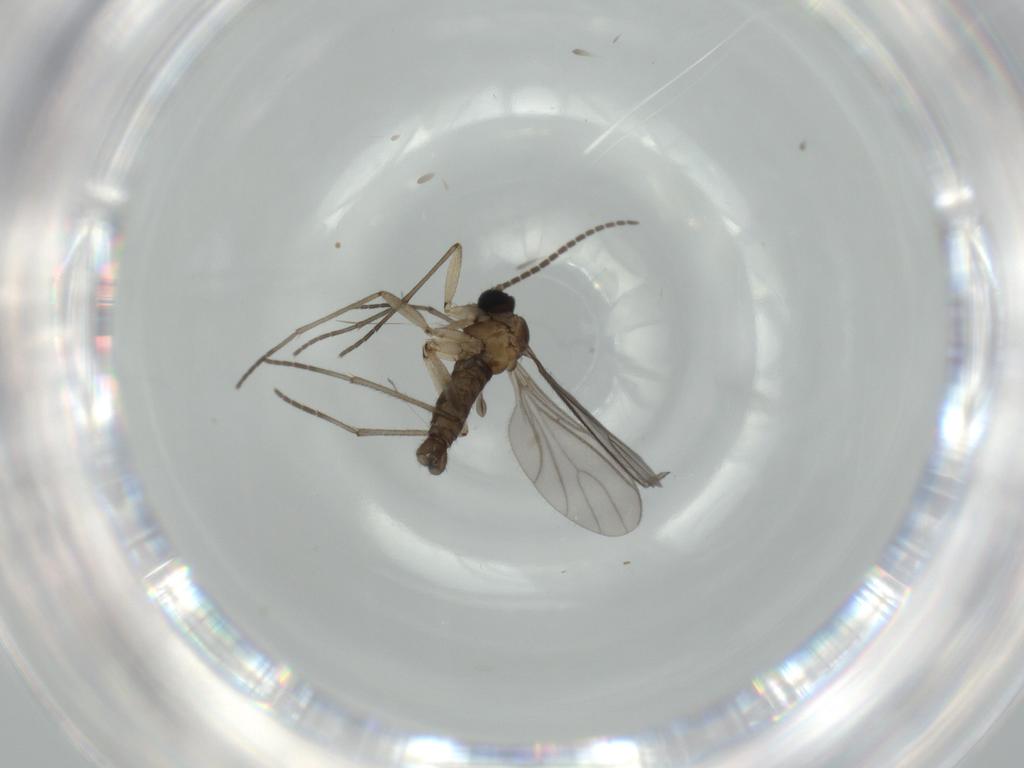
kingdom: Animalia
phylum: Arthropoda
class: Insecta
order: Diptera
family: Sciaridae
